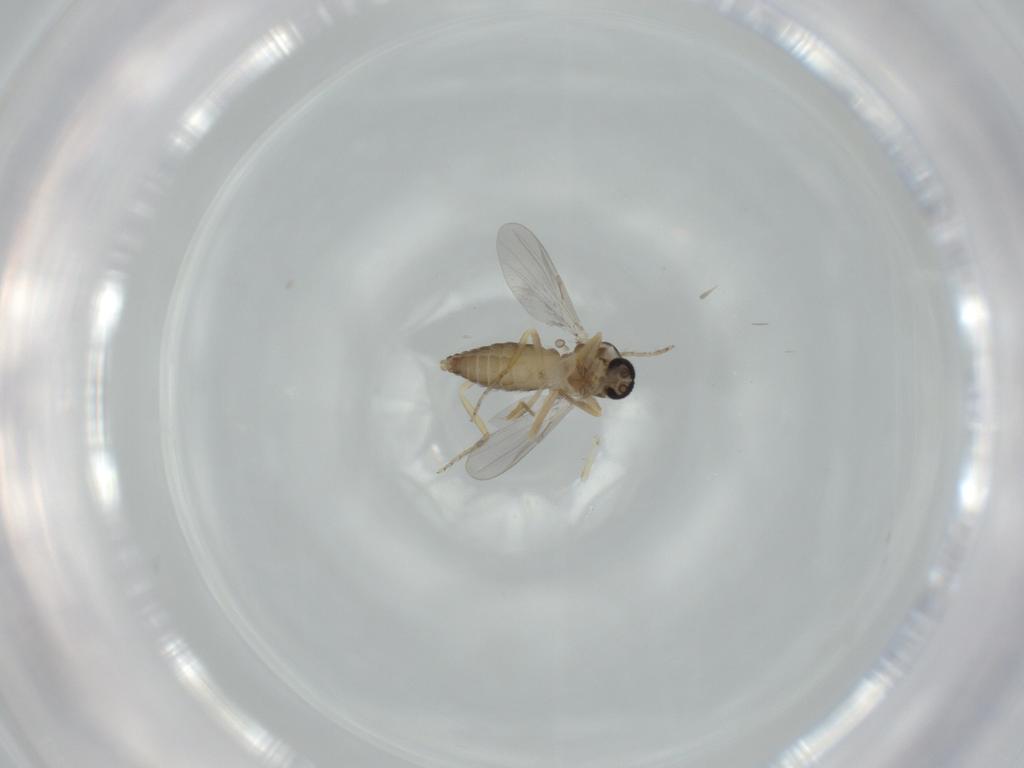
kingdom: Animalia
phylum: Arthropoda
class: Insecta
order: Diptera
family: Ceratopogonidae
